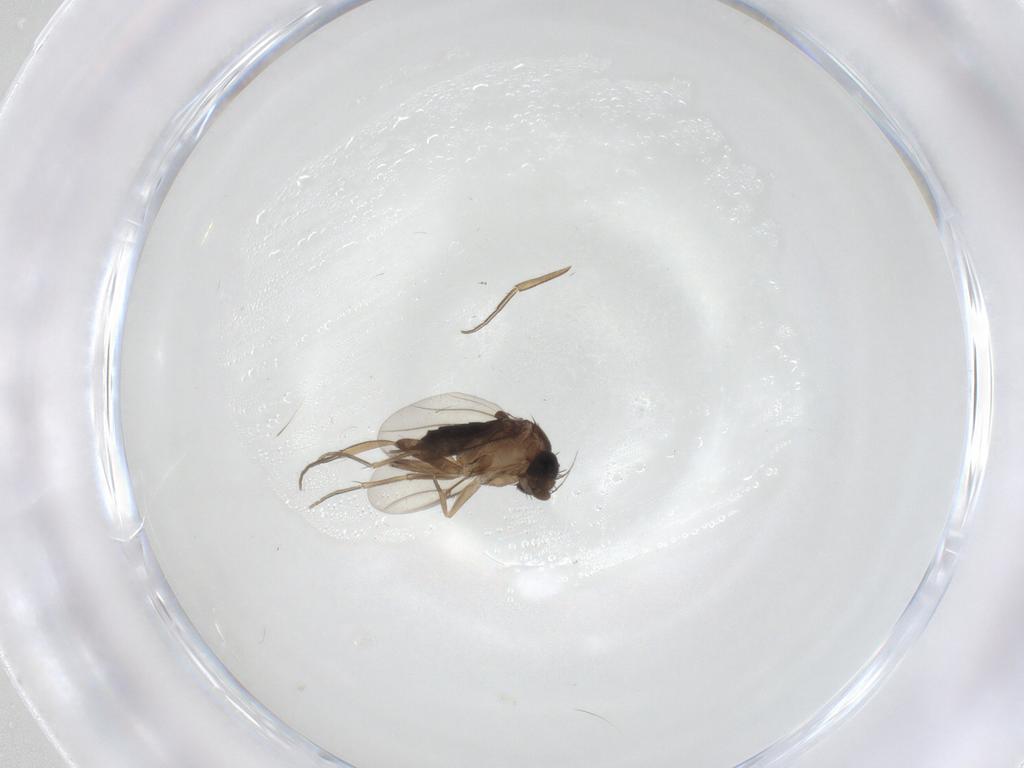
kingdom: Animalia
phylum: Arthropoda
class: Insecta
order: Diptera
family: Cecidomyiidae
